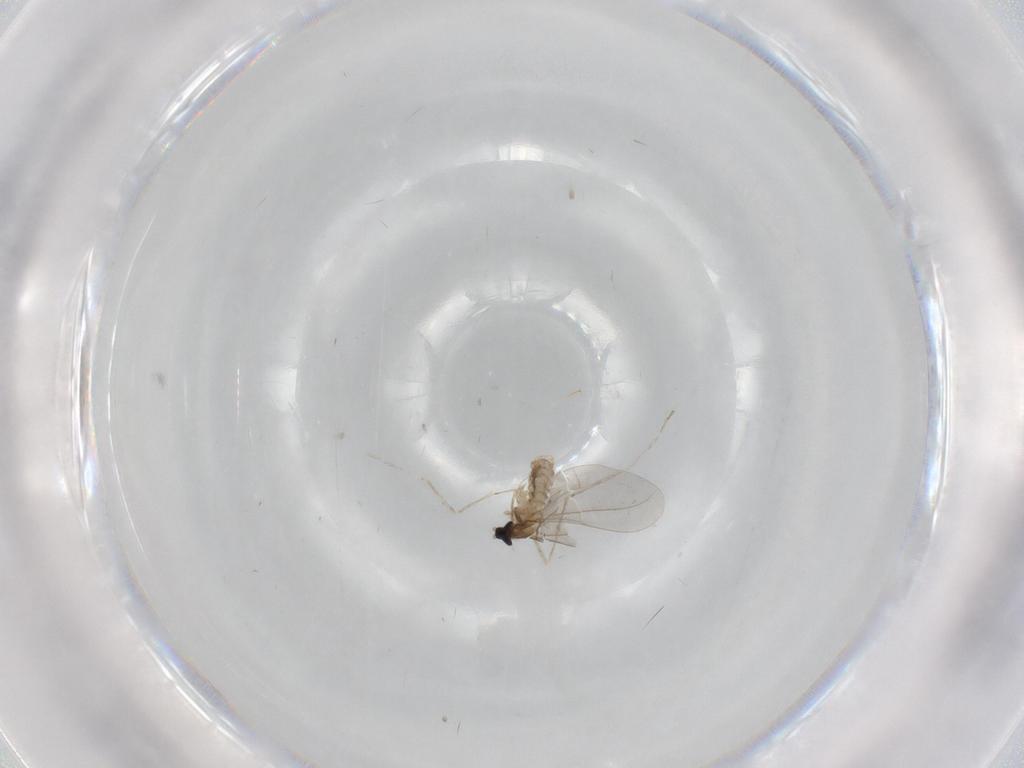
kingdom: Animalia
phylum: Arthropoda
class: Insecta
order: Diptera
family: Cecidomyiidae
